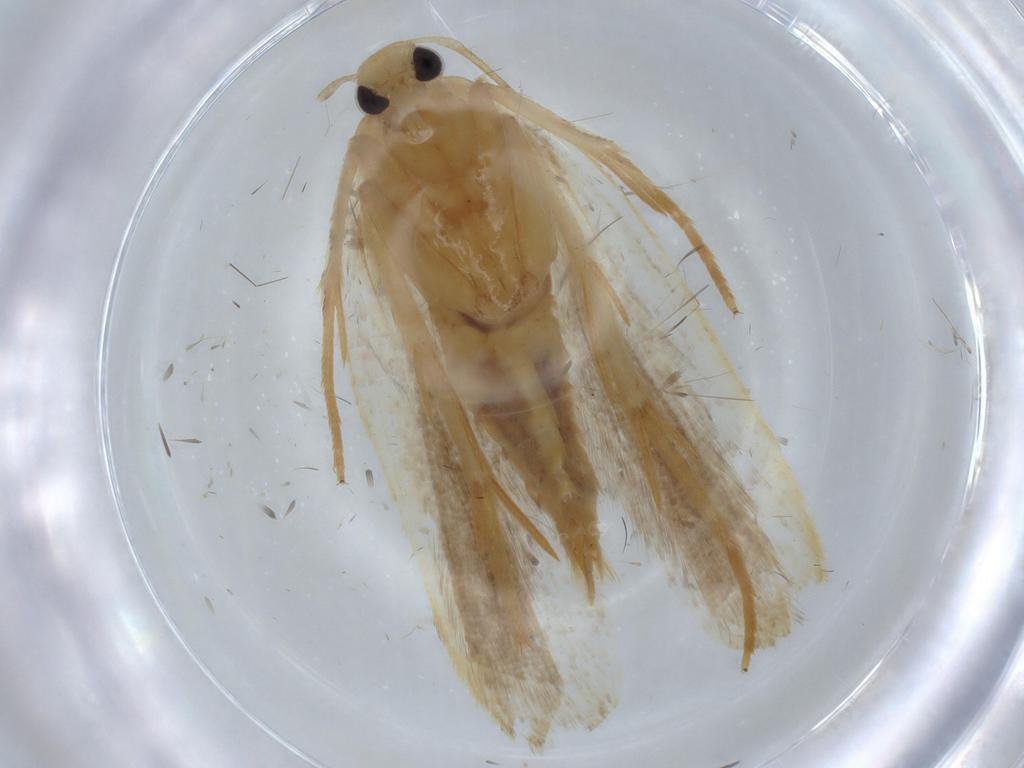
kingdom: Animalia
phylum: Arthropoda
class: Insecta
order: Lepidoptera
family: Gelechiidae
